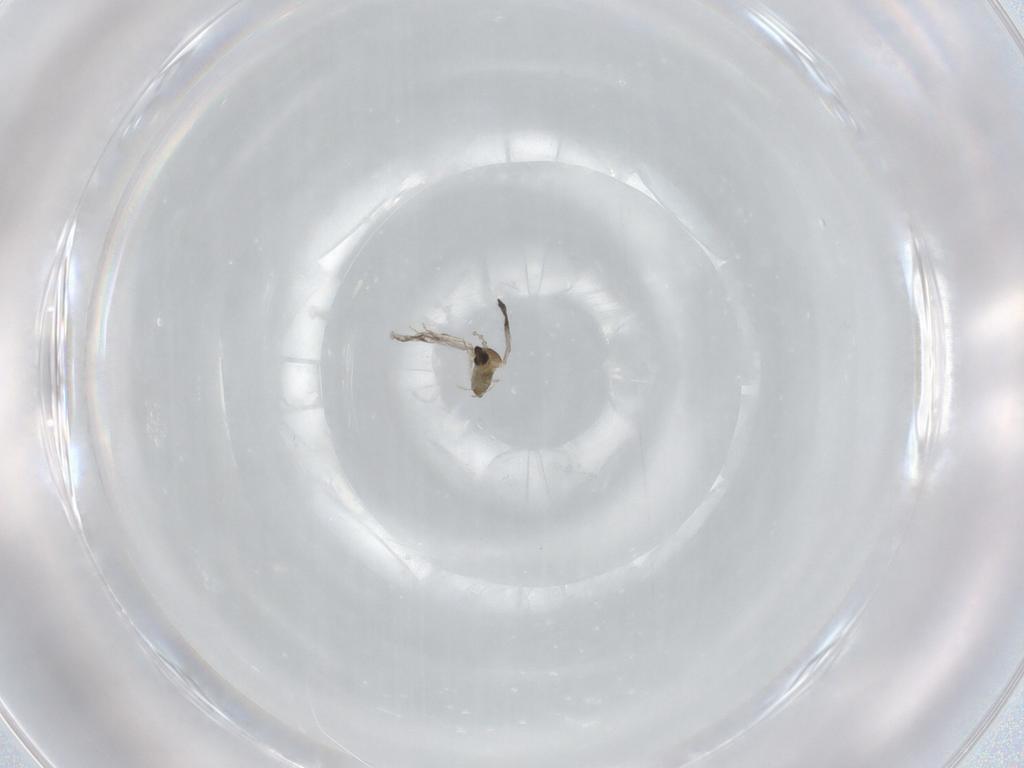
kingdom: Animalia
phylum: Arthropoda
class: Insecta
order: Diptera
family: Cecidomyiidae
